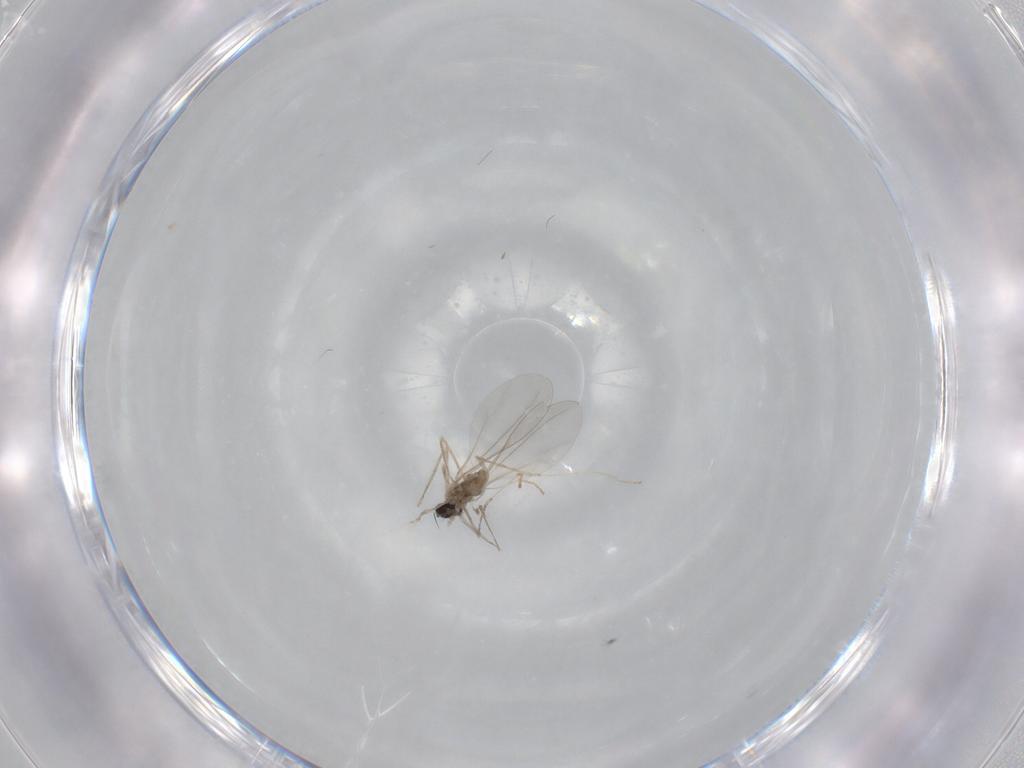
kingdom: Animalia
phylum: Arthropoda
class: Insecta
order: Diptera
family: Cecidomyiidae
